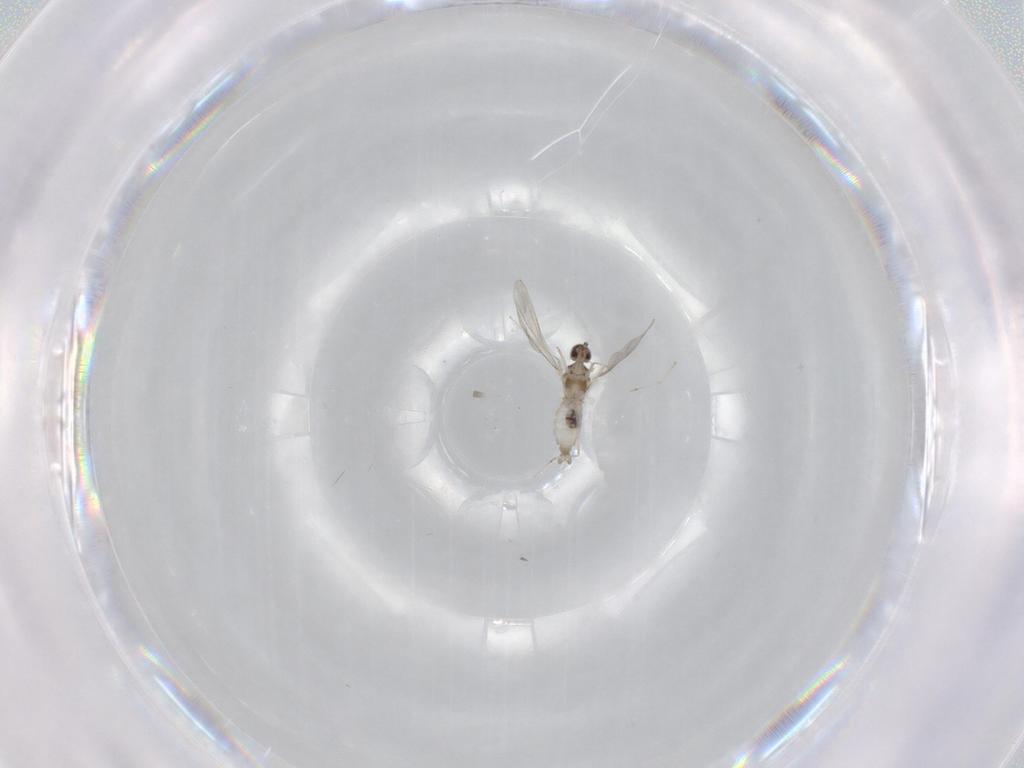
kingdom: Animalia
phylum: Arthropoda
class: Insecta
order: Diptera
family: Cecidomyiidae
